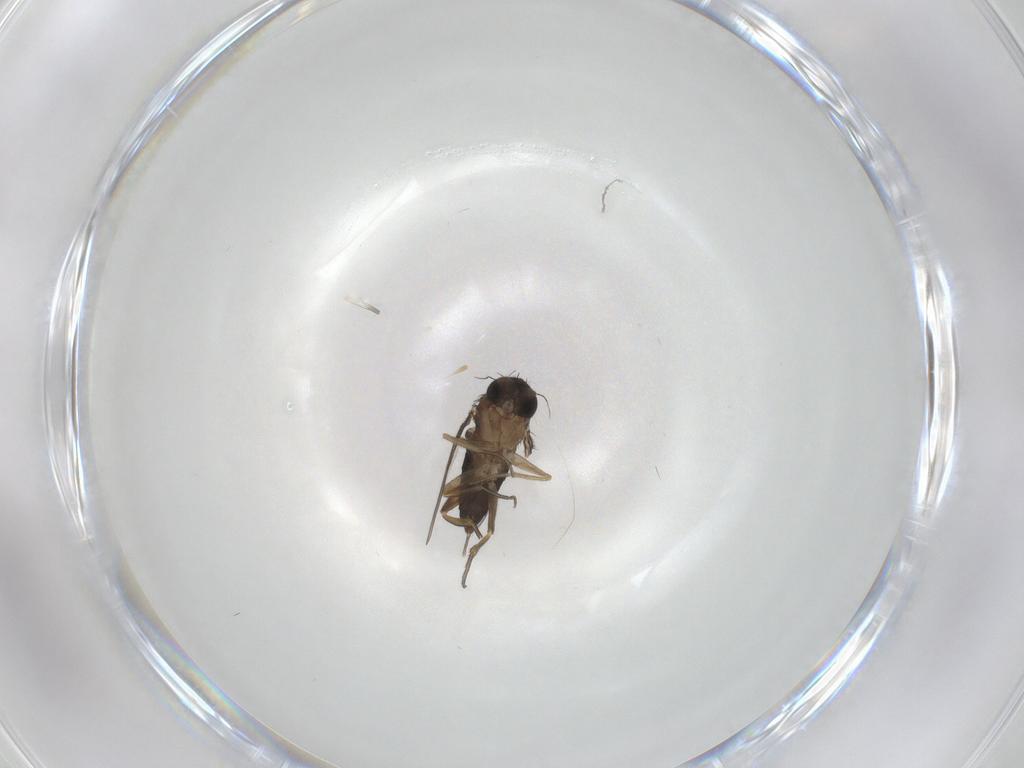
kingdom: Animalia
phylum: Arthropoda
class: Insecta
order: Diptera
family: Phoridae
